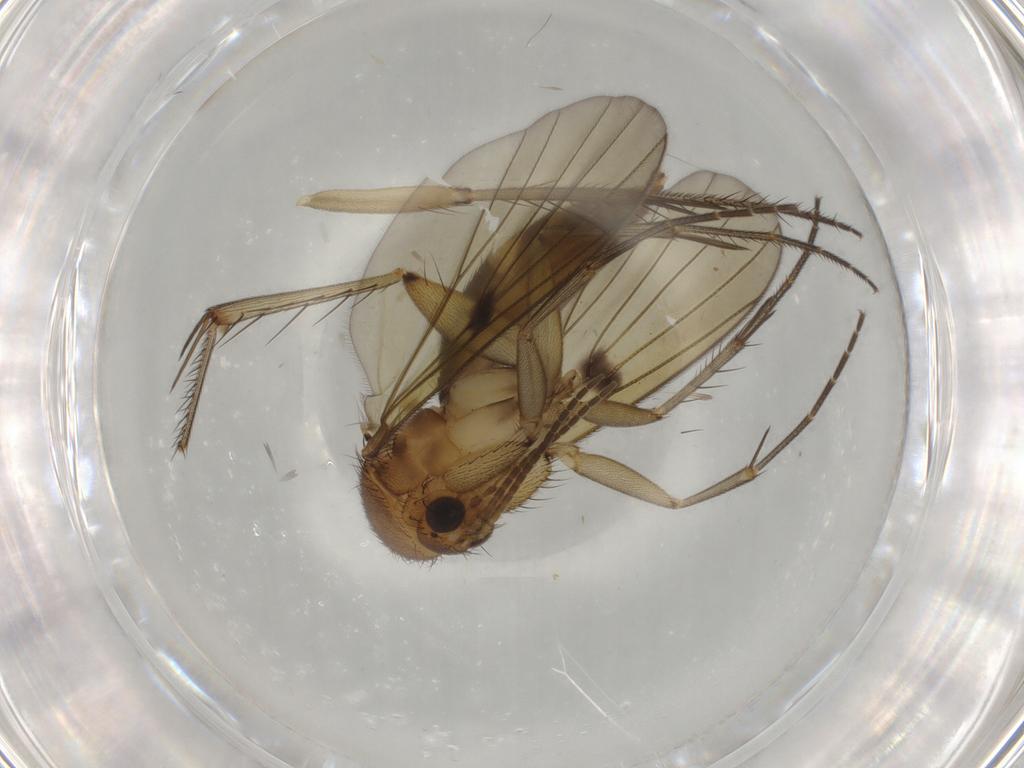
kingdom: Animalia
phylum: Arthropoda
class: Insecta
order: Diptera
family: Mycetophilidae
